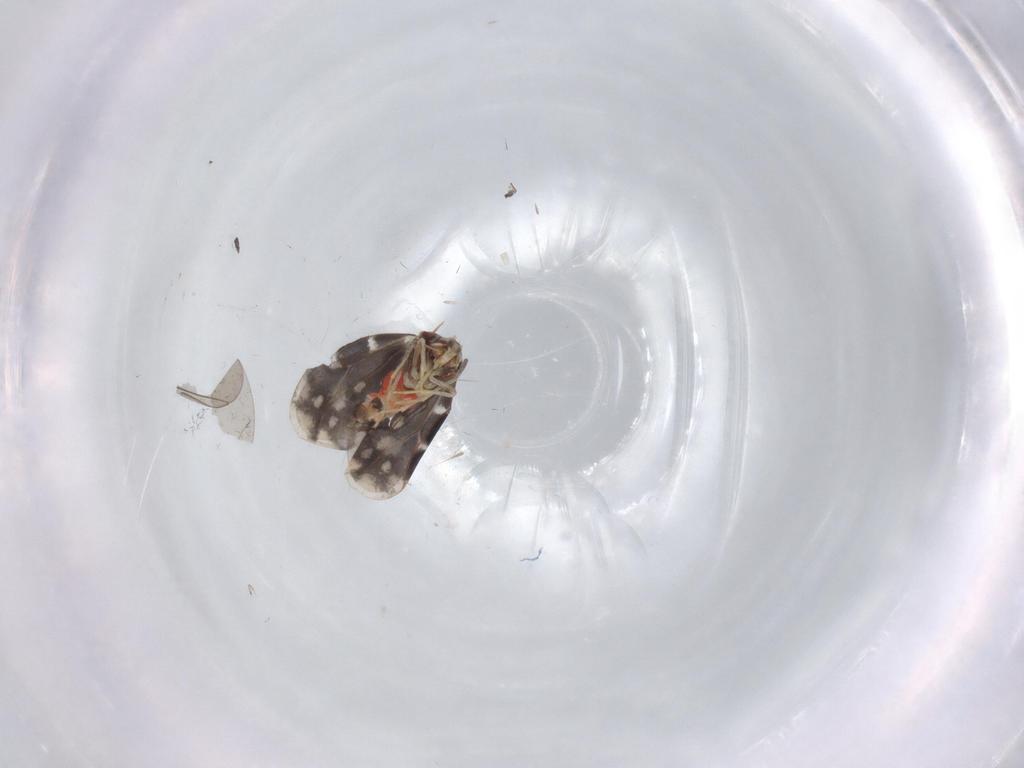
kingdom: Animalia
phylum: Arthropoda
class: Insecta
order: Hemiptera
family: Aleyrodidae
